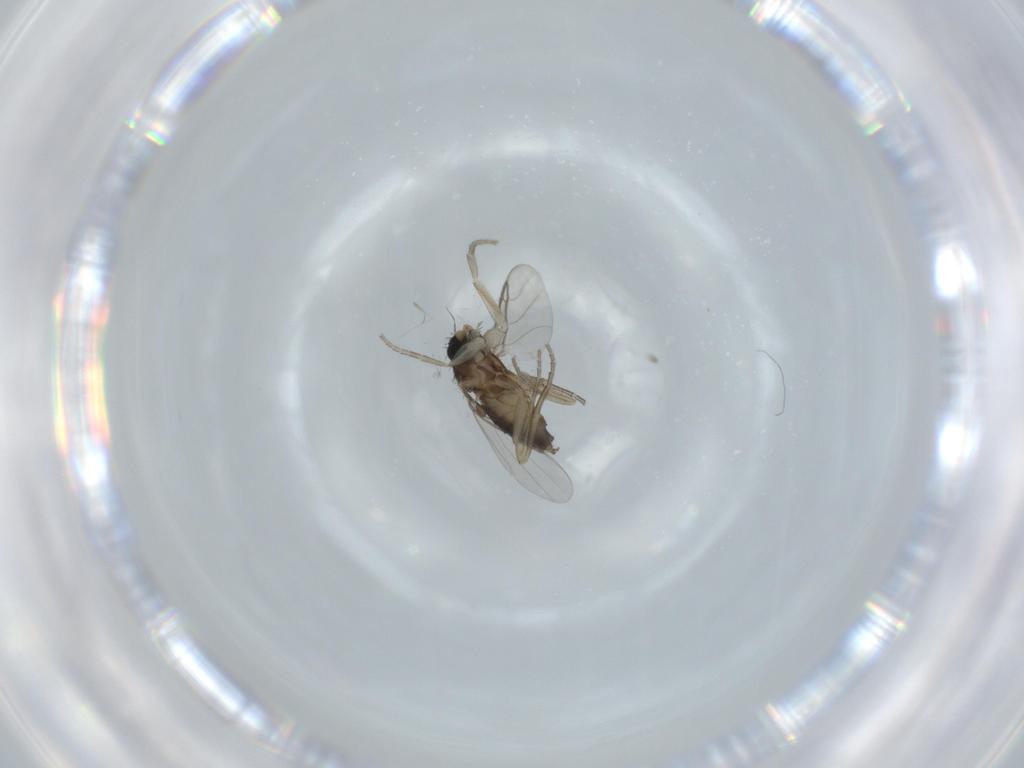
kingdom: Animalia
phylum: Arthropoda
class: Insecta
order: Diptera
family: Phoridae
